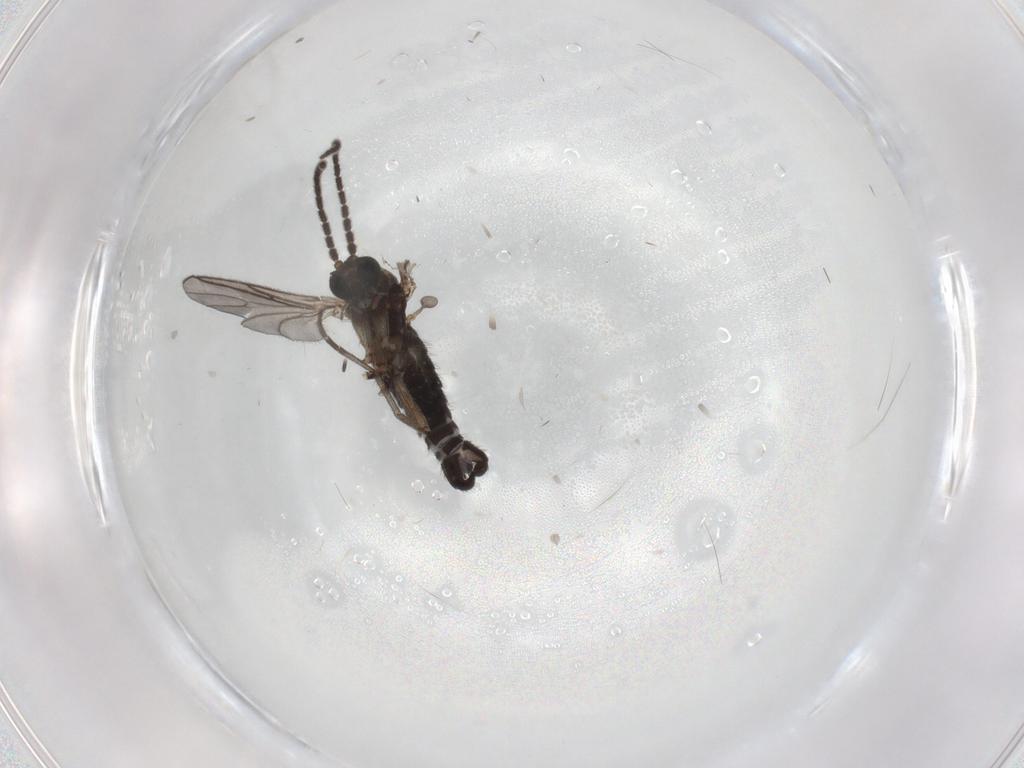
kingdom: Animalia
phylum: Arthropoda
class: Insecta
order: Diptera
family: Sciaridae
